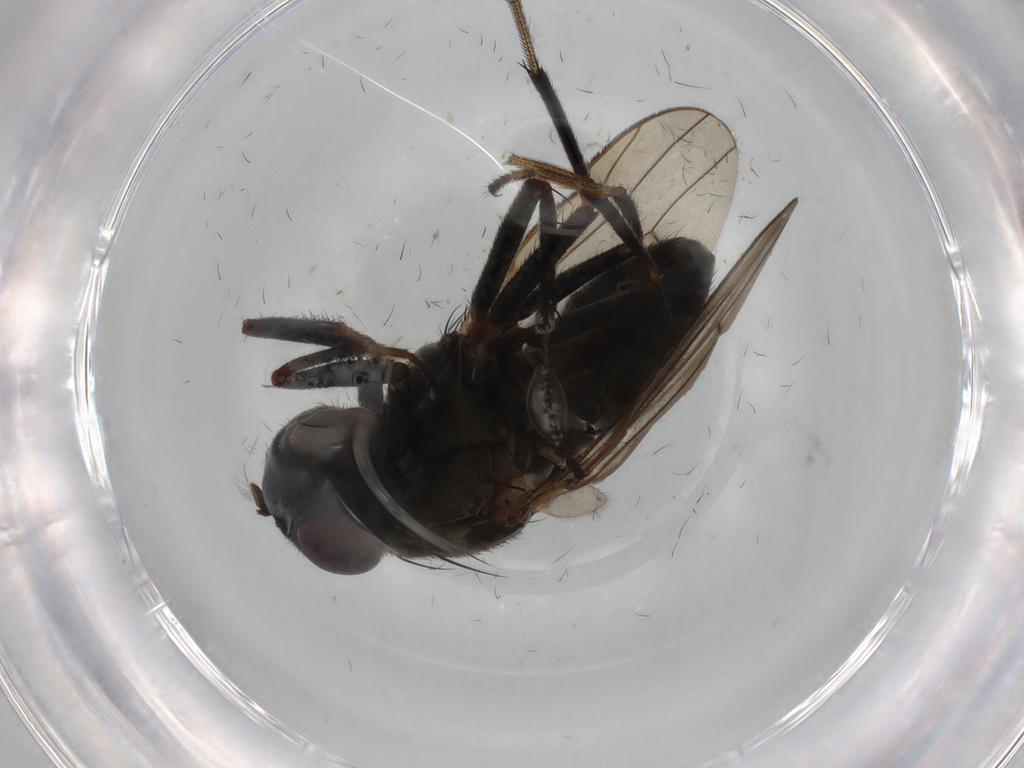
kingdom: Animalia
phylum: Arthropoda
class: Insecta
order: Diptera
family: Ephydridae
